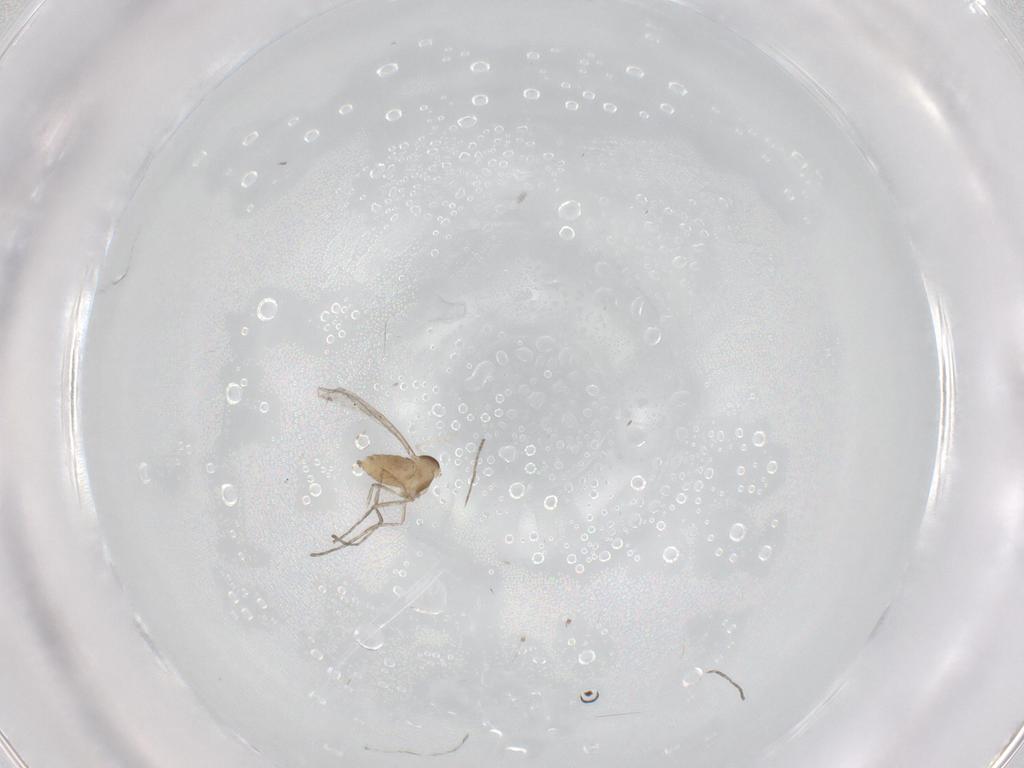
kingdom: Animalia
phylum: Arthropoda
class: Insecta
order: Diptera
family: Cecidomyiidae
